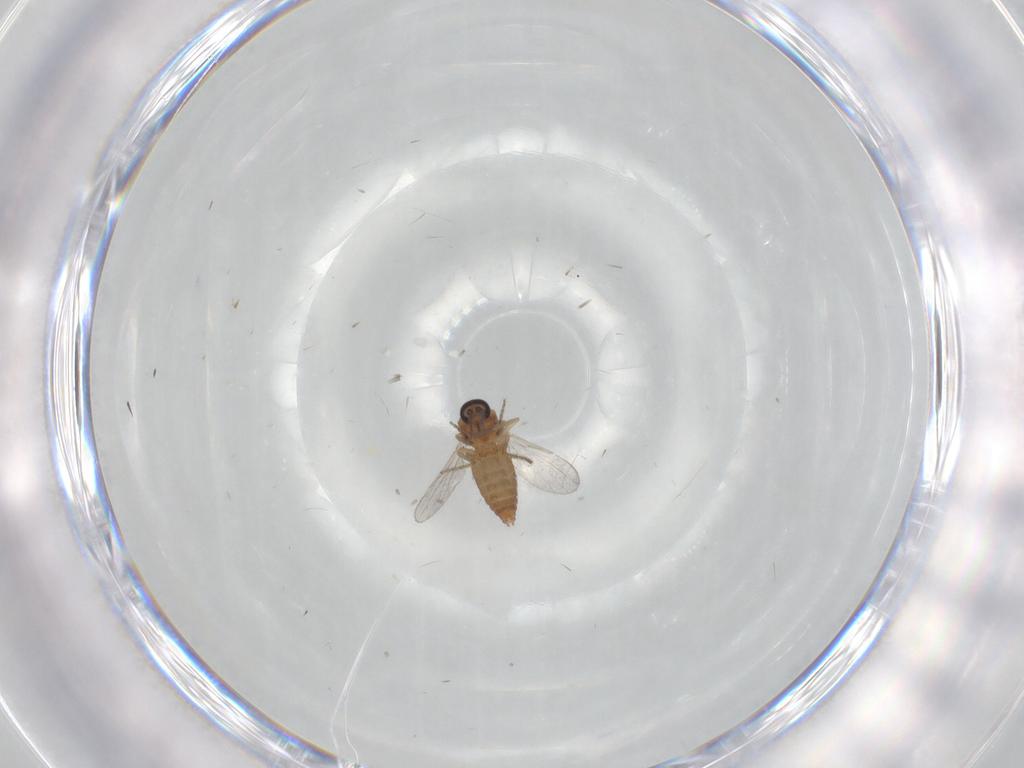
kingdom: Animalia
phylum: Arthropoda
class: Insecta
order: Diptera
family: Ceratopogonidae
